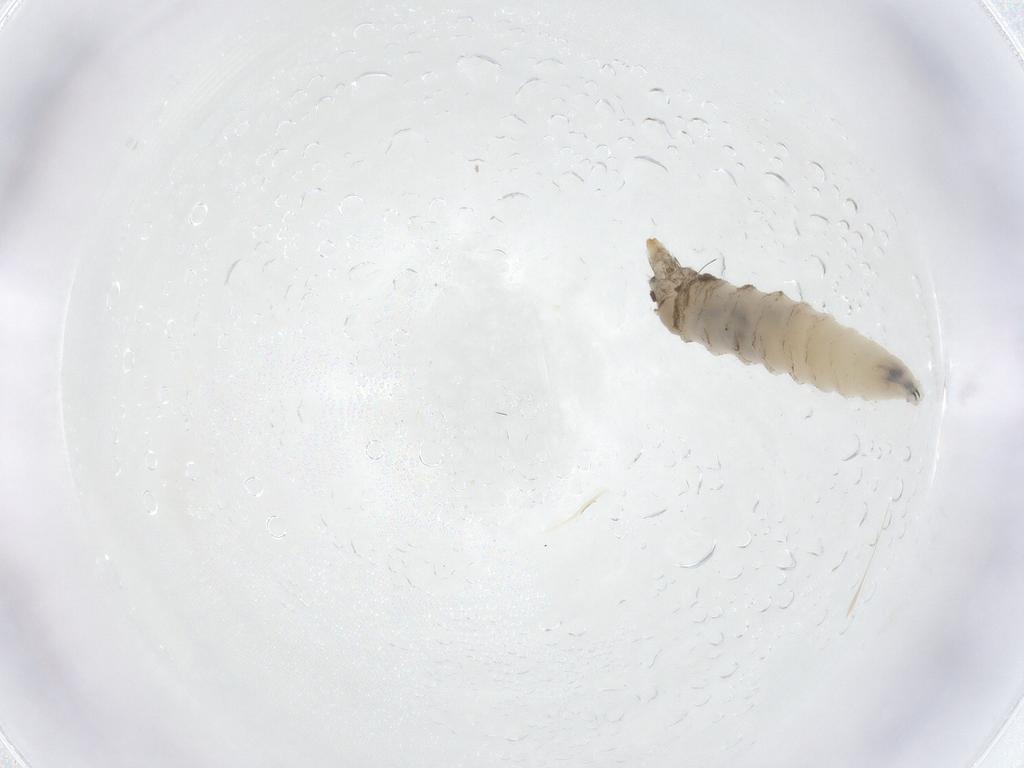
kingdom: Animalia
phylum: Arthropoda
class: Insecta
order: Diptera
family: Drosophilidae
